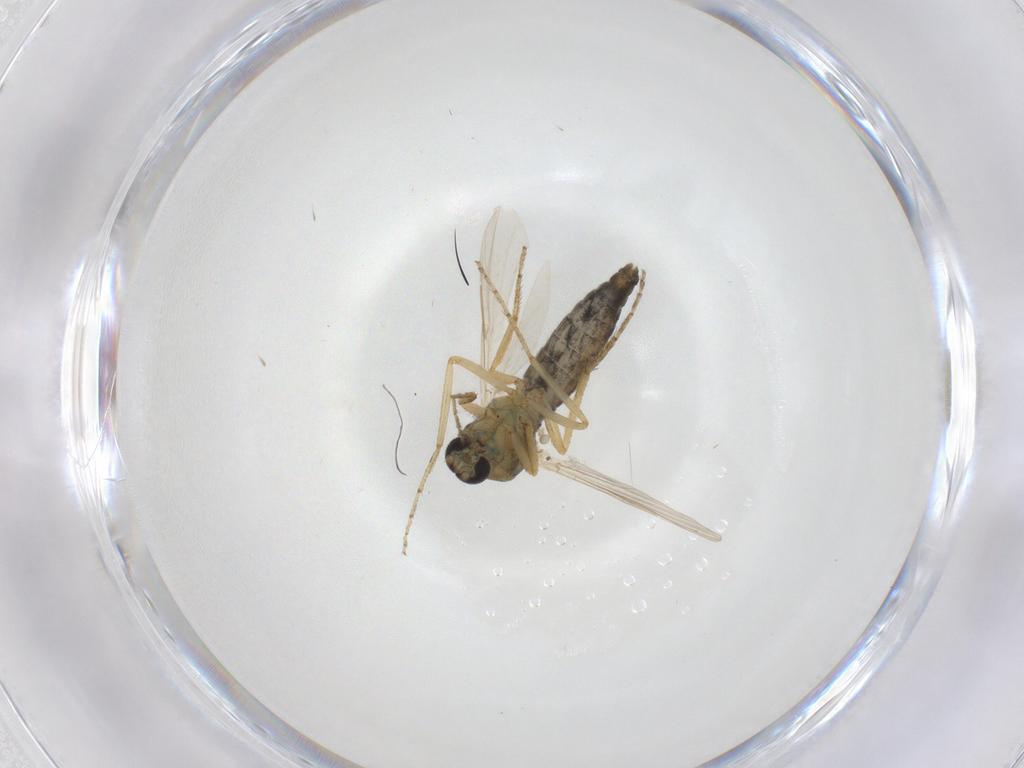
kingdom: Animalia
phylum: Arthropoda
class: Insecta
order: Diptera
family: Ceratopogonidae
